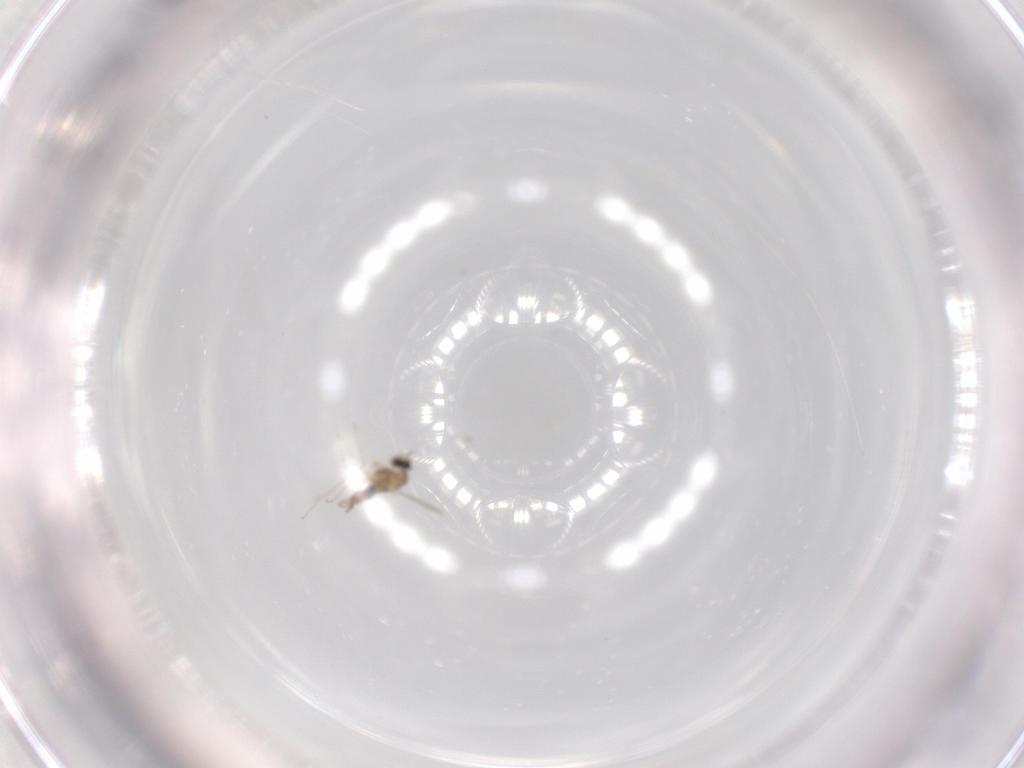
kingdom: Animalia
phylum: Arthropoda
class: Insecta
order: Diptera
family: Cecidomyiidae
